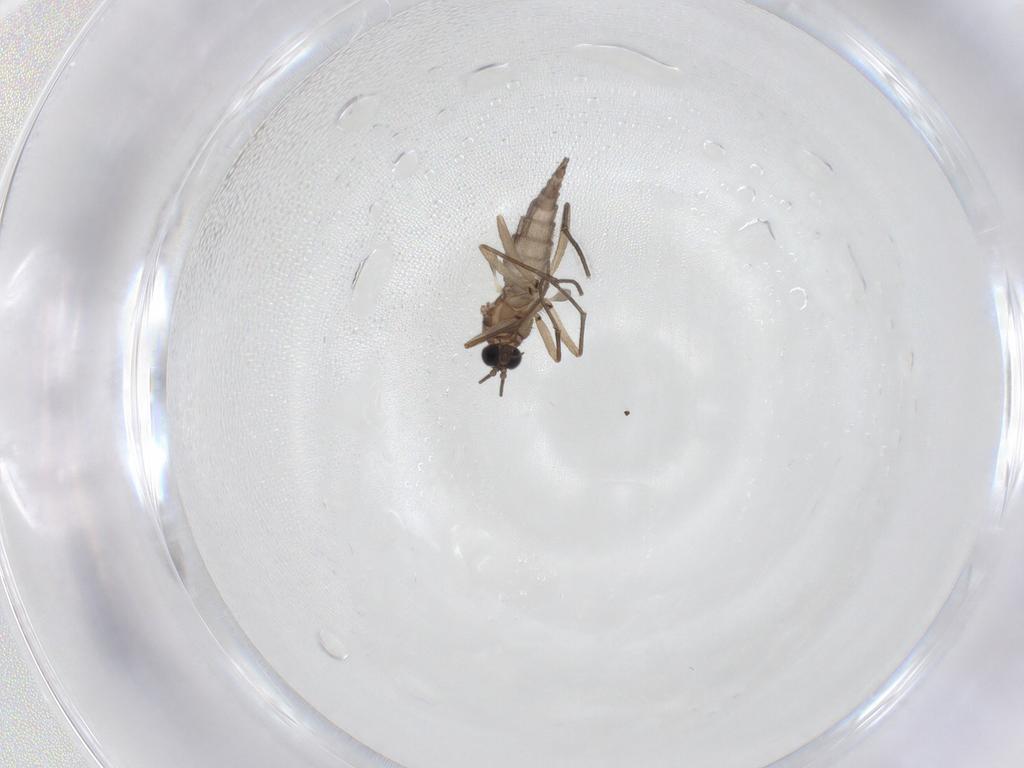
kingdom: Animalia
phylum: Arthropoda
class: Insecta
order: Diptera
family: Sciaridae
